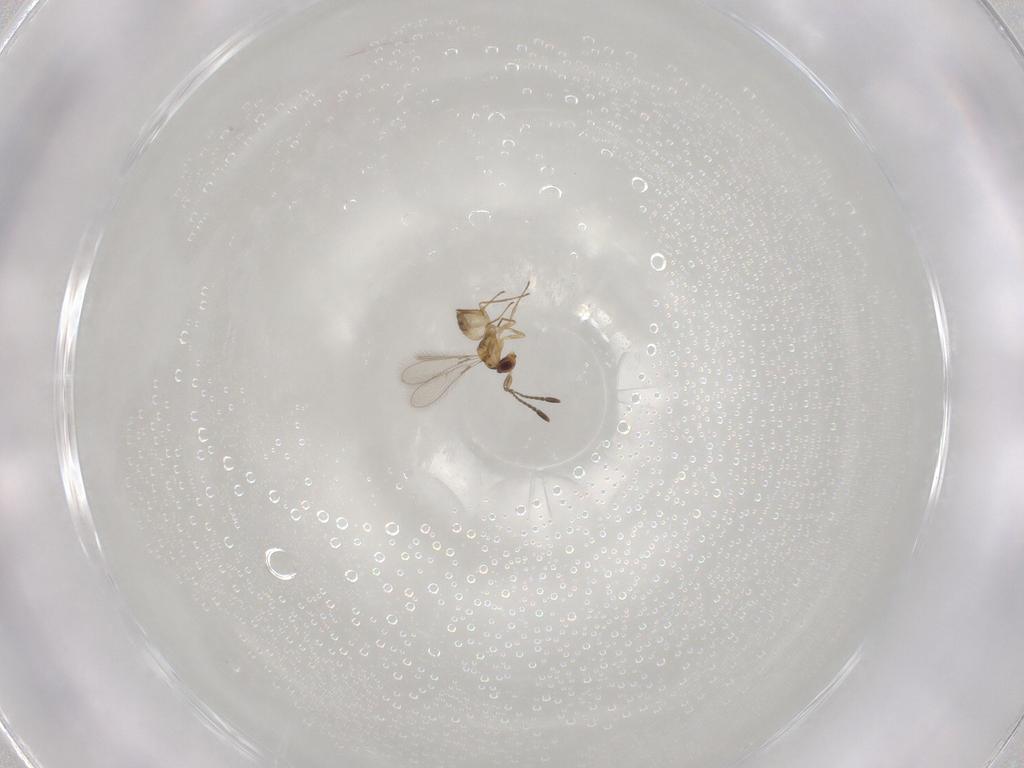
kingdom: Animalia
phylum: Arthropoda
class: Insecta
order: Hymenoptera
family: Mymaridae
